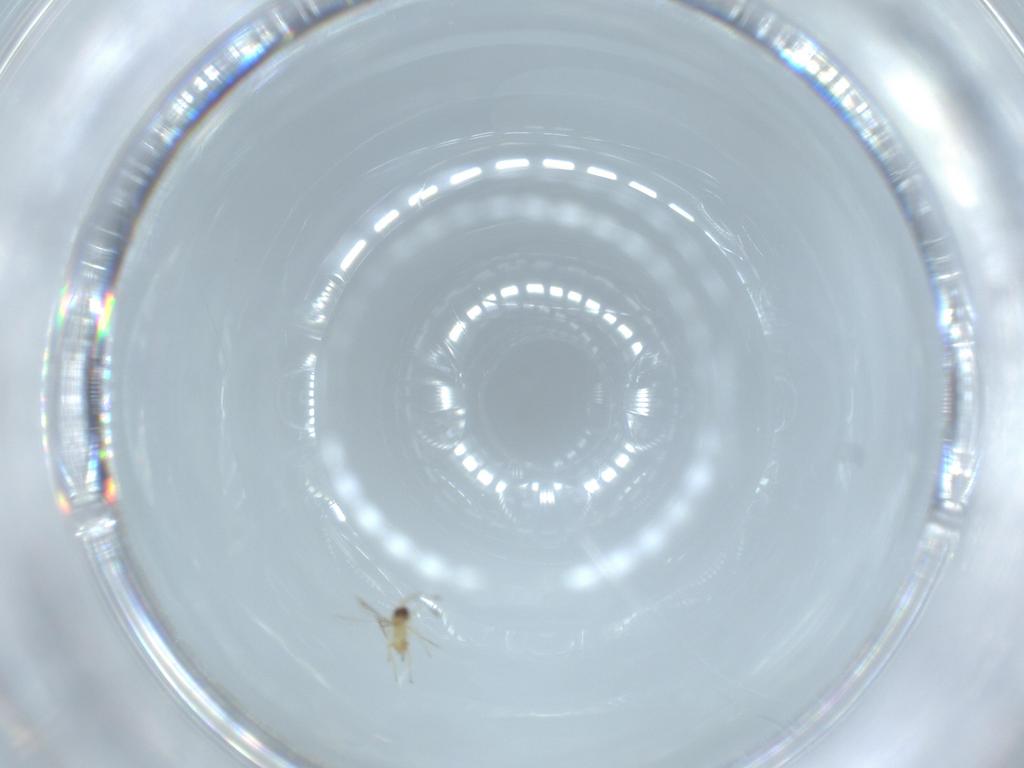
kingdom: Animalia
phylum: Arthropoda
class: Insecta
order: Hymenoptera
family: Mymaridae
